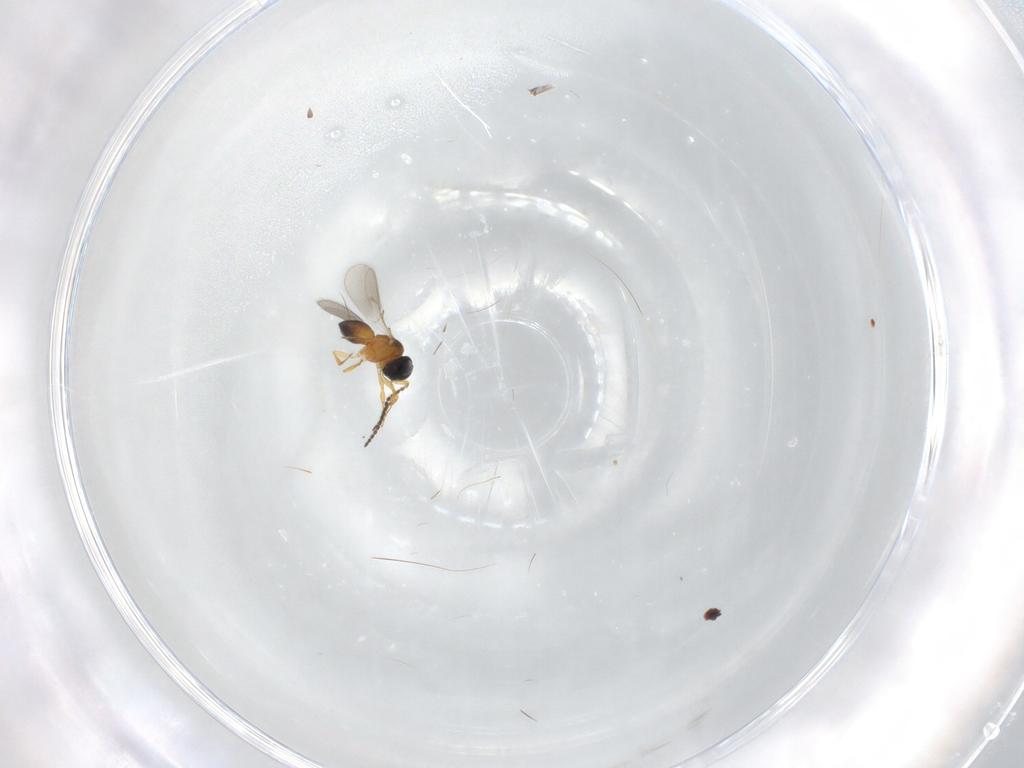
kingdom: Animalia
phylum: Arthropoda
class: Insecta
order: Hymenoptera
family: Scelionidae
